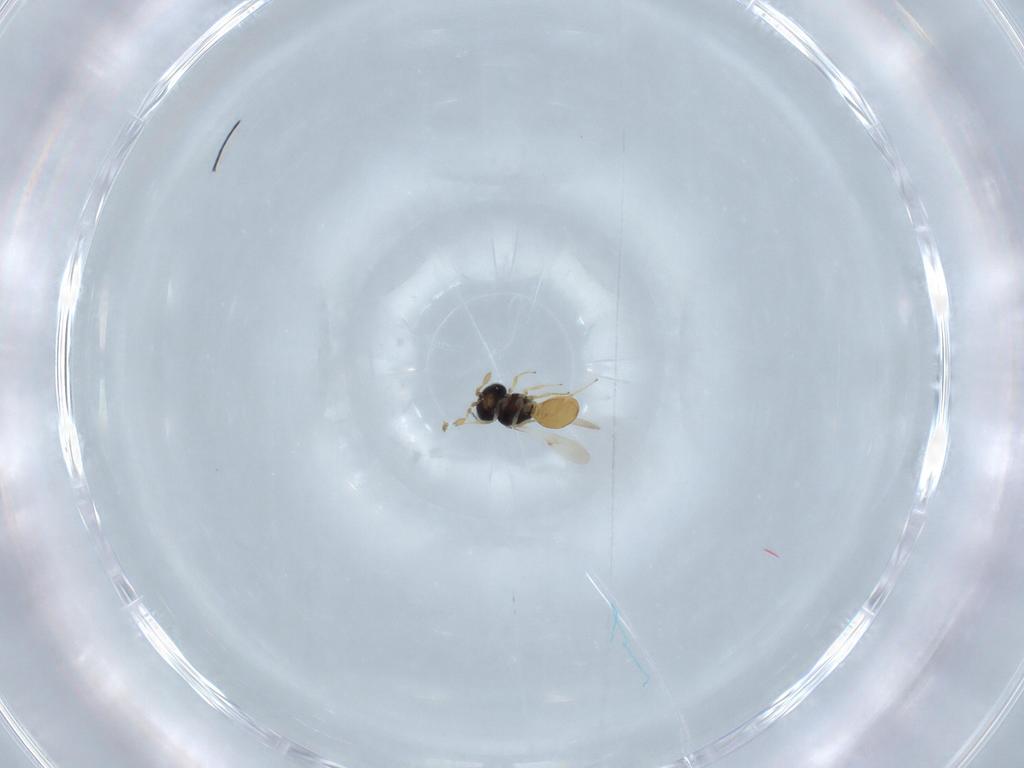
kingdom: Animalia
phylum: Arthropoda
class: Insecta
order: Hymenoptera
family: Scelionidae
